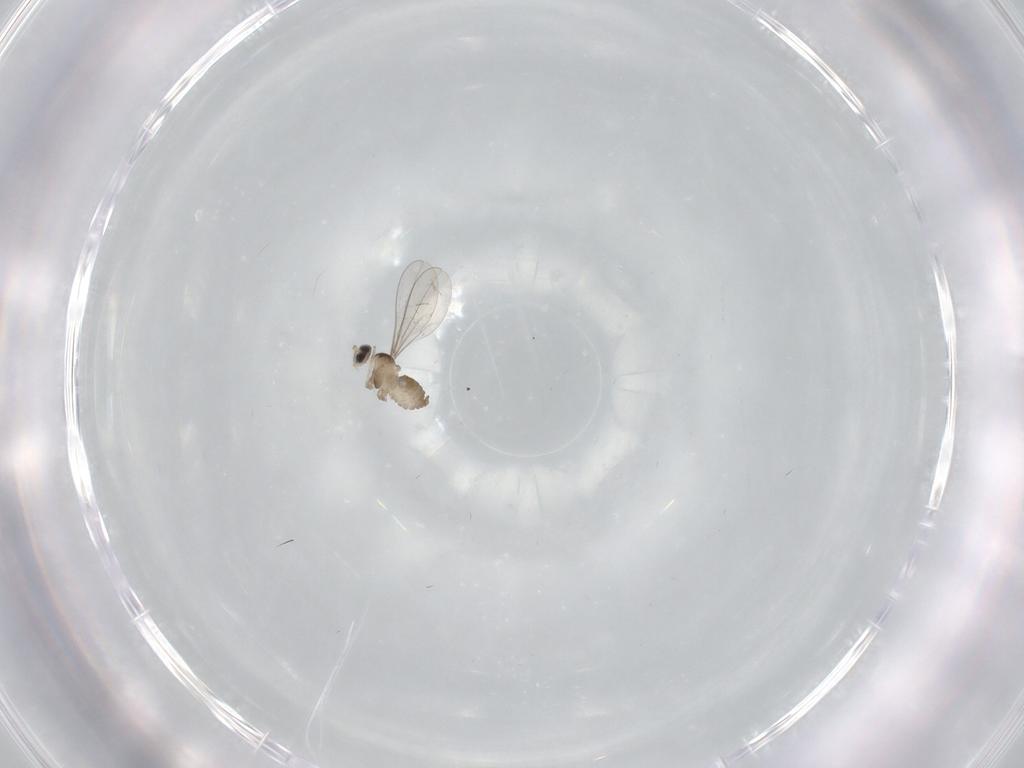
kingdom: Animalia
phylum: Arthropoda
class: Insecta
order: Diptera
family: Cecidomyiidae
